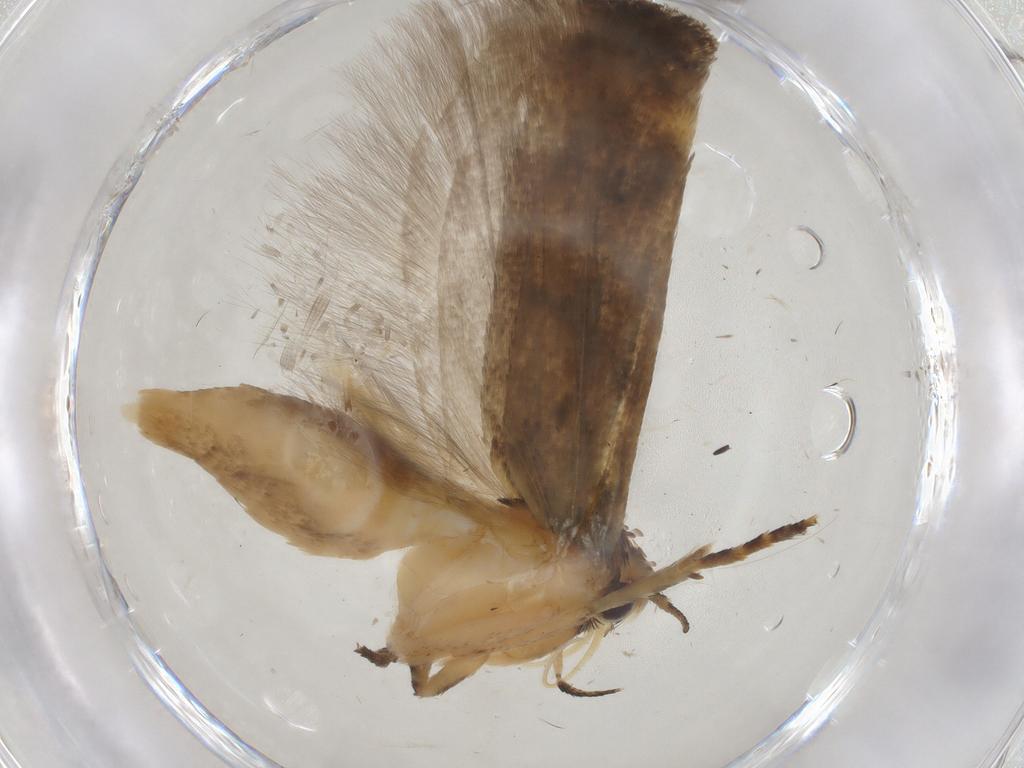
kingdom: Animalia
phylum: Arthropoda
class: Insecta
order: Lepidoptera
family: Gelechiidae
